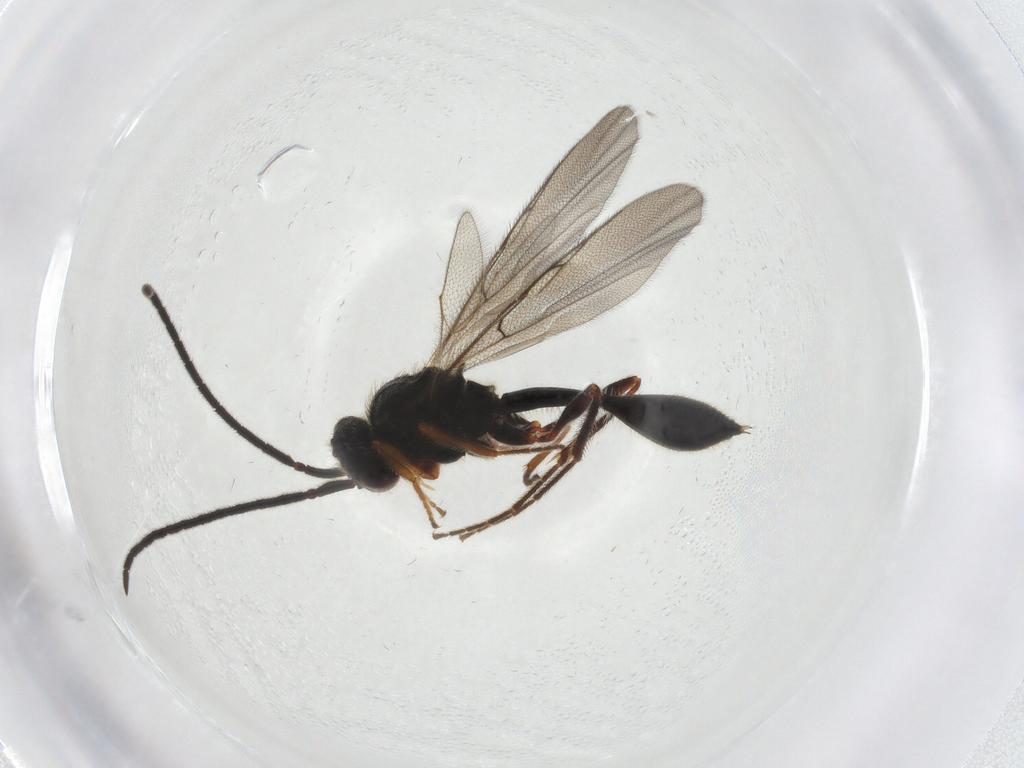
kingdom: Animalia
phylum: Arthropoda
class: Insecta
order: Hymenoptera
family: Diapriidae
